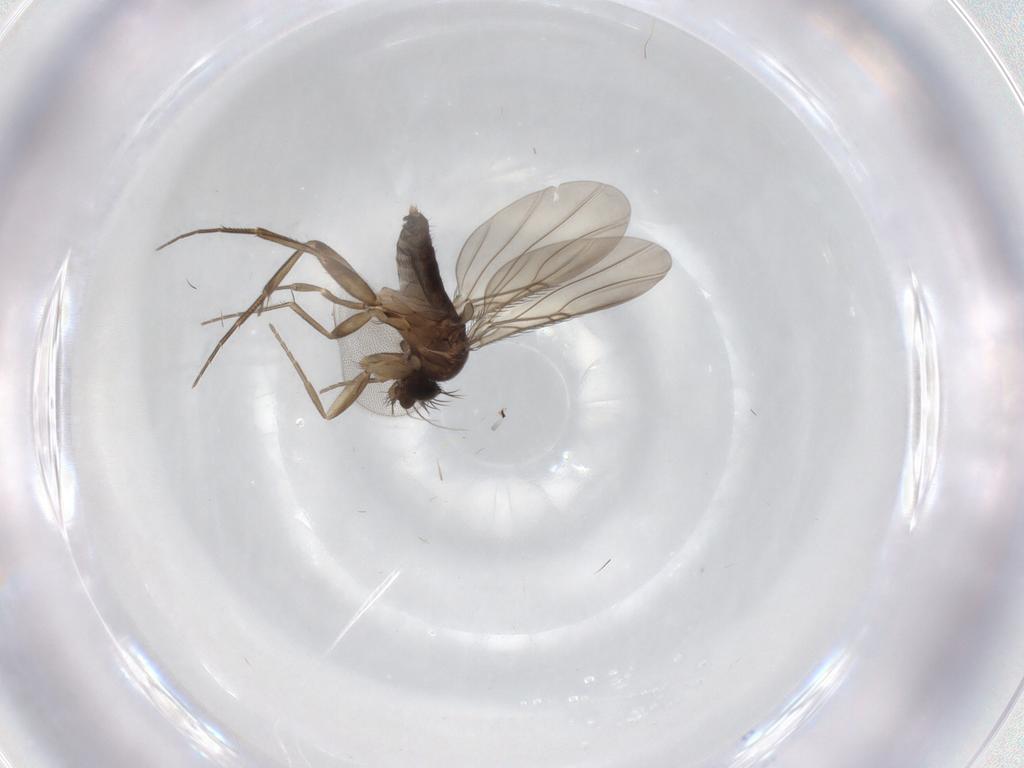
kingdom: Animalia
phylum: Arthropoda
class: Insecta
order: Diptera
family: Phoridae
